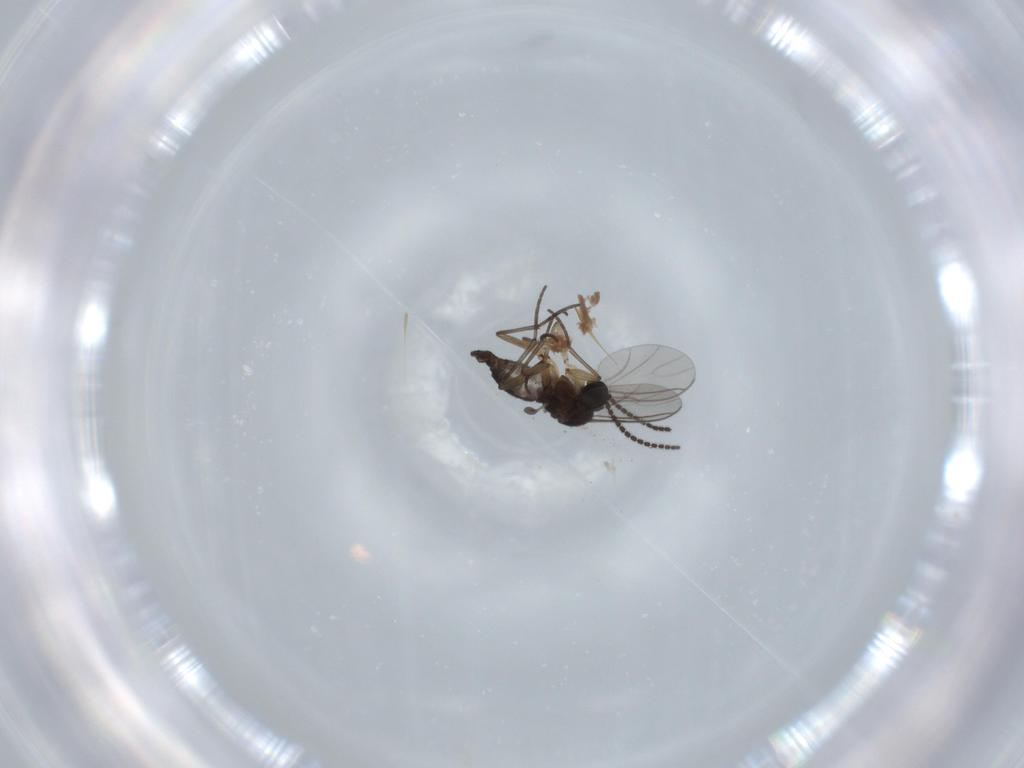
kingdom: Animalia
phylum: Arthropoda
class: Insecta
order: Diptera
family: Sciaridae
